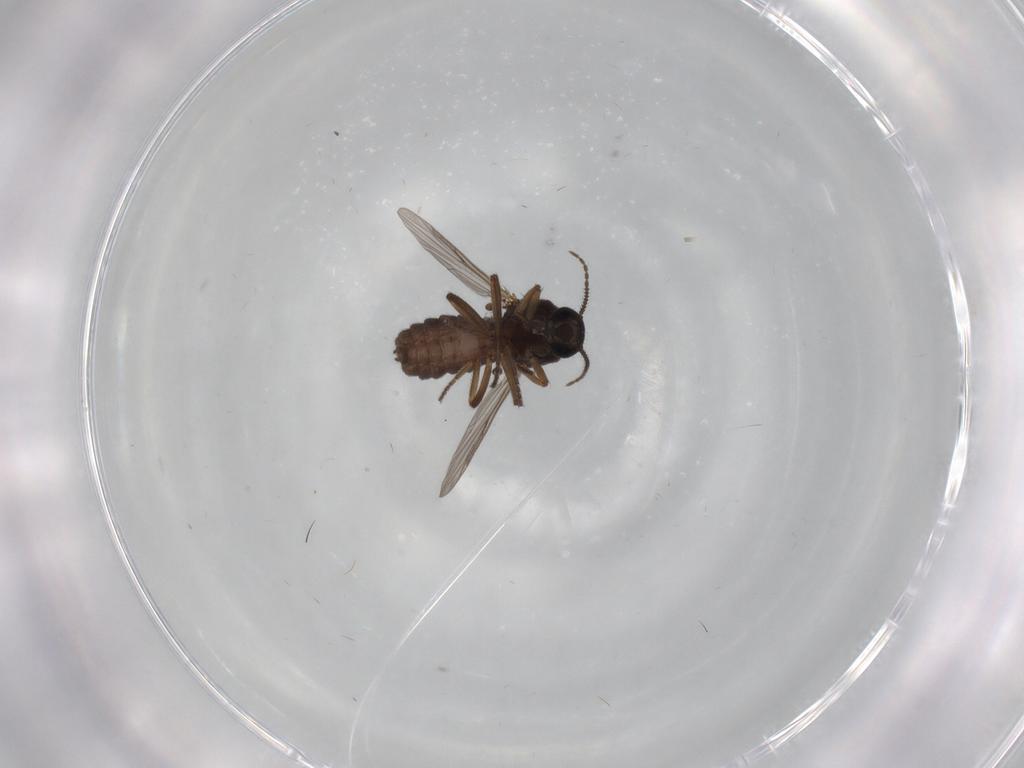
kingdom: Animalia
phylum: Arthropoda
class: Insecta
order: Diptera
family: Ceratopogonidae
